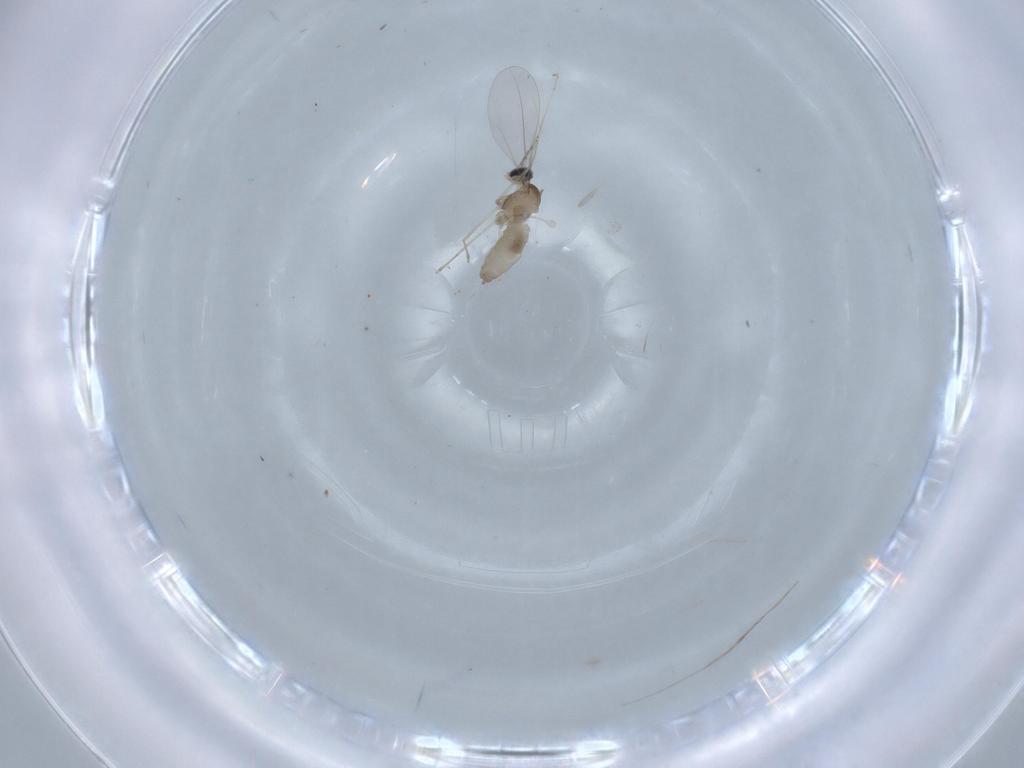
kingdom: Animalia
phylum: Arthropoda
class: Insecta
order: Diptera
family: Cecidomyiidae
